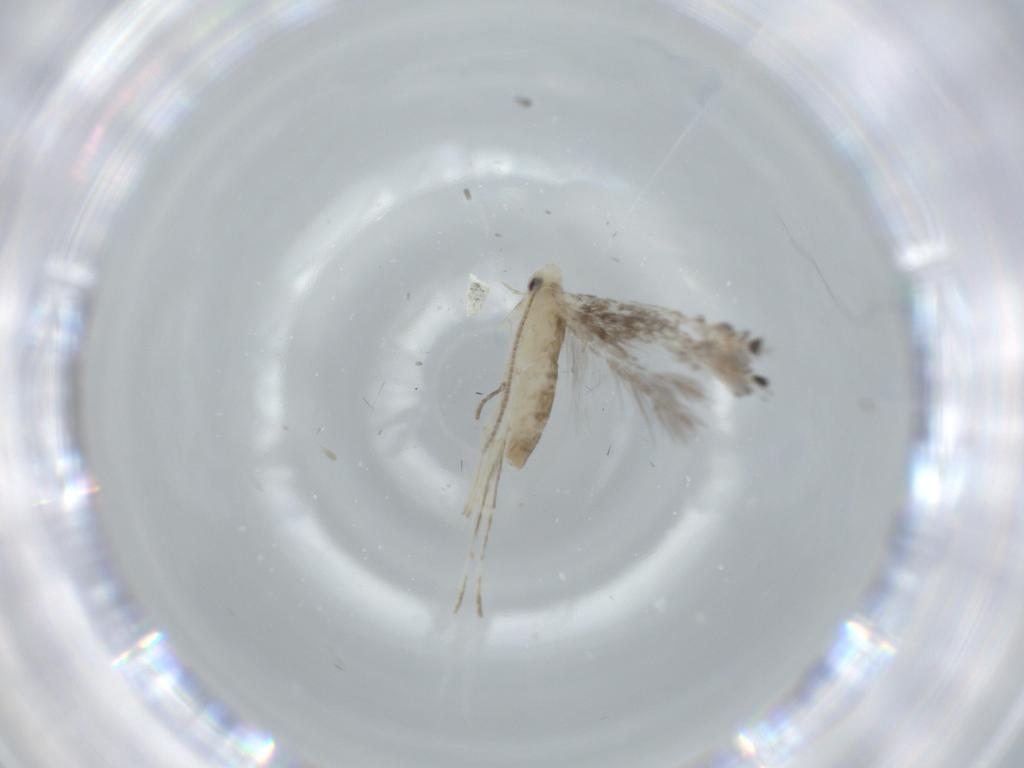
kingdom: Animalia
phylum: Arthropoda
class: Insecta
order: Lepidoptera
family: Gracillariidae
